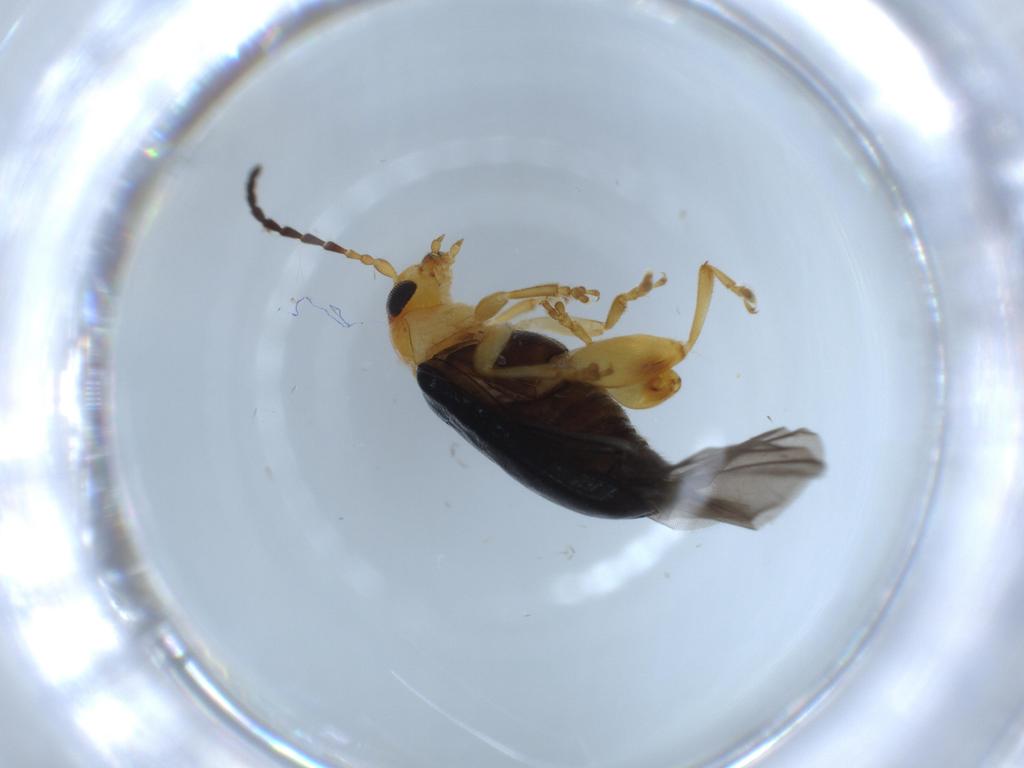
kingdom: Animalia
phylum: Arthropoda
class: Insecta
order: Coleoptera
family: Chrysomelidae
